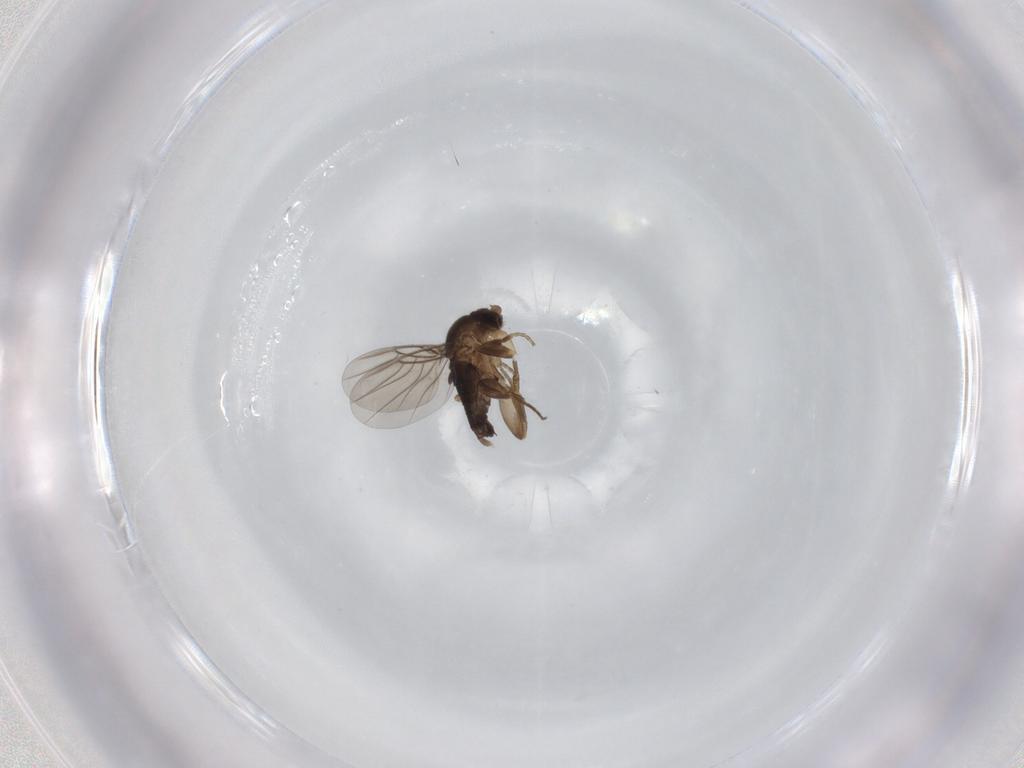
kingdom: Animalia
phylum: Arthropoda
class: Insecta
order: Diptera
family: Phoridae
